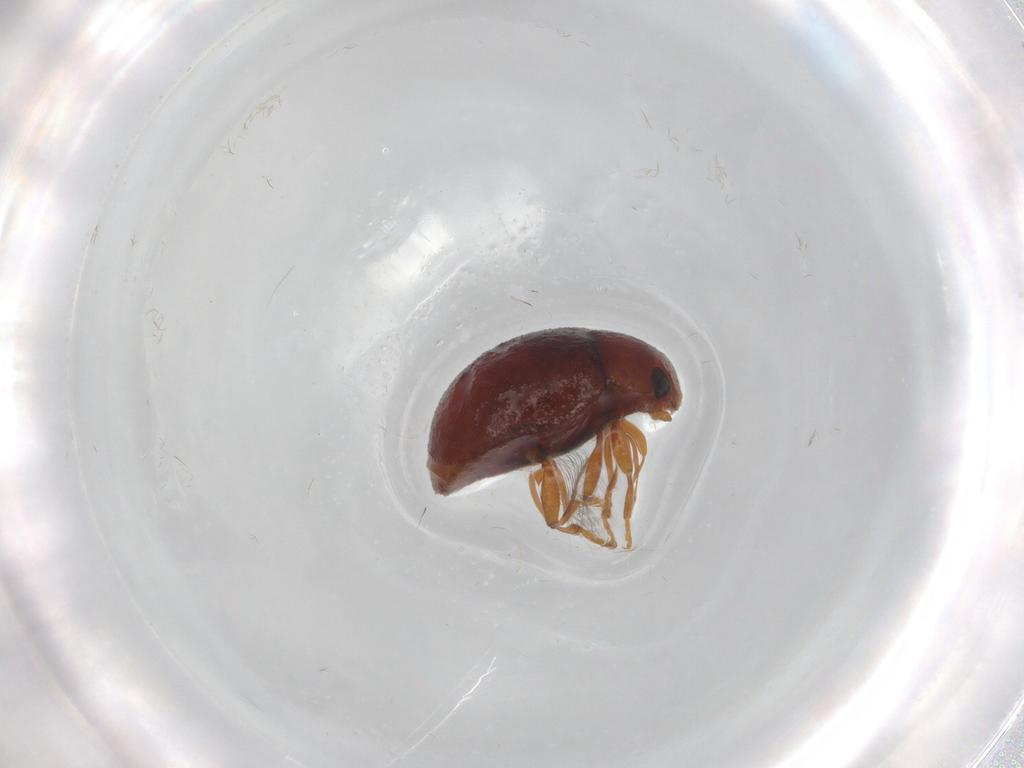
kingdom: Animalia
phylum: Arthropoda
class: Insecta
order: Coleoptera
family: Coccinellidae
